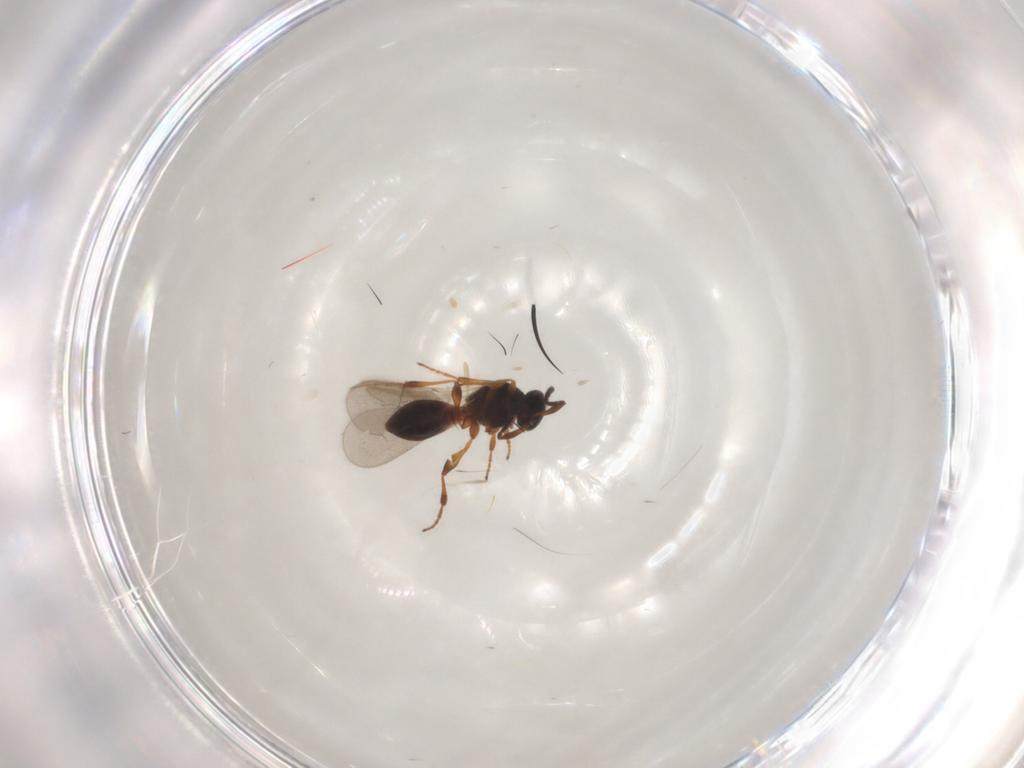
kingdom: Animalia
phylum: Arthropoda
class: Insecta
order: Hymenoptera
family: Platygastridae
